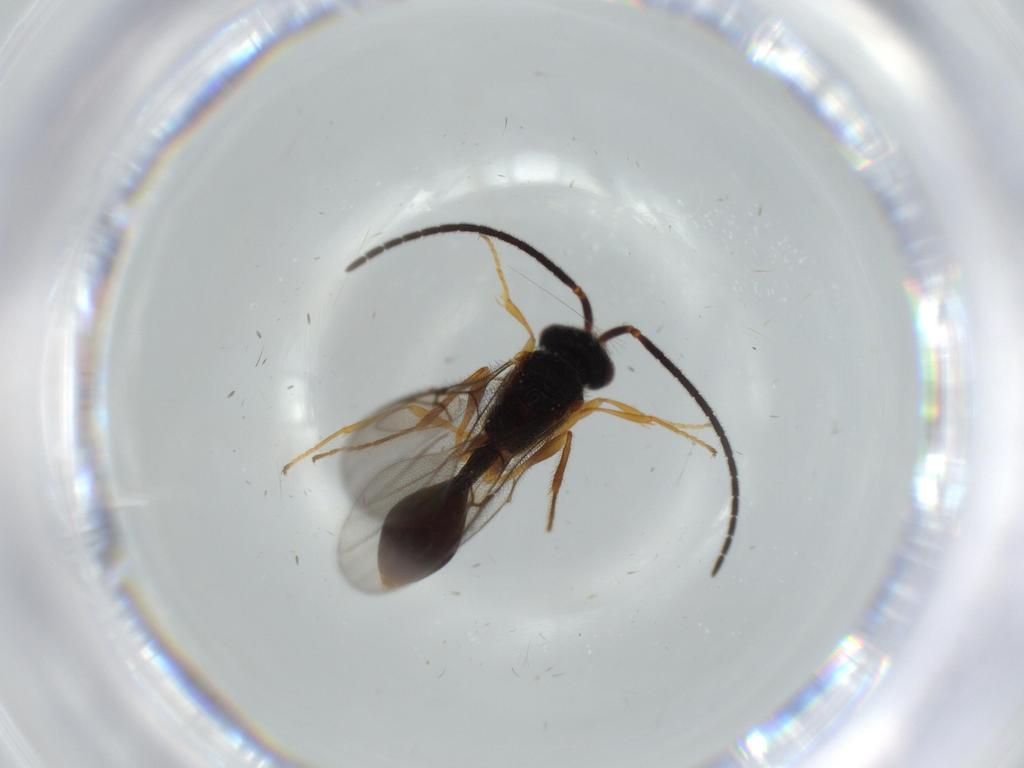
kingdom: Animalia
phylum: Arthropoda
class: Insecta
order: Hymenoptera
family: Diapriidae
